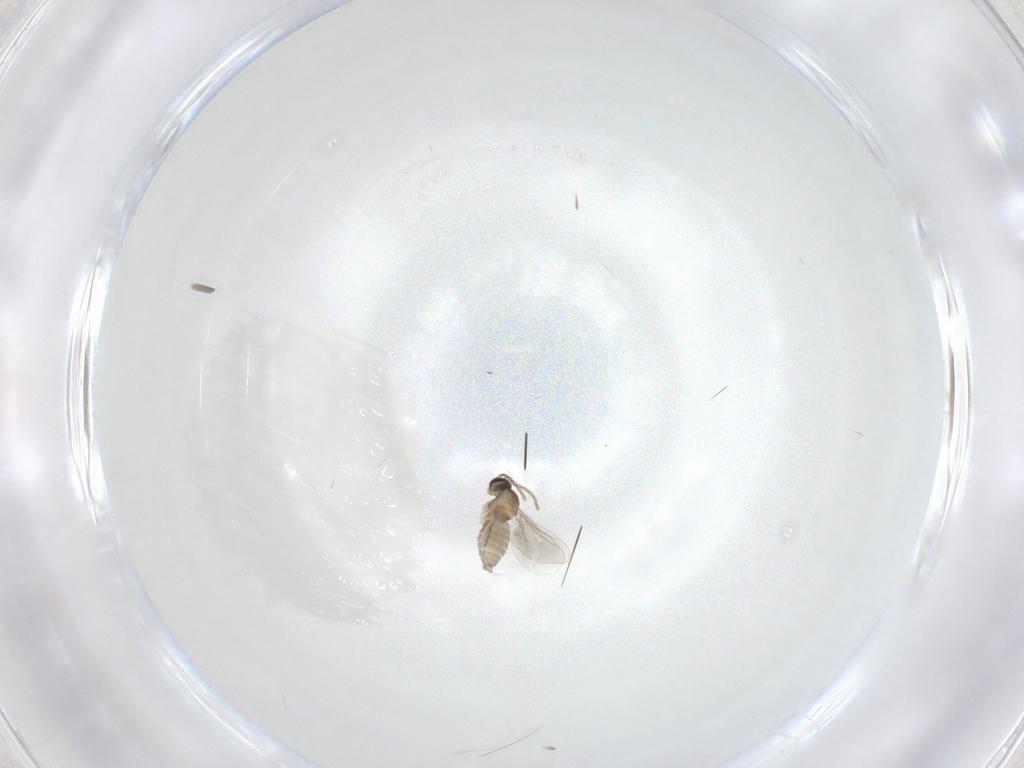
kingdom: Animalia
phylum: Arthropoda
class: Insecta
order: Diptera
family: Cecidomyiidae
